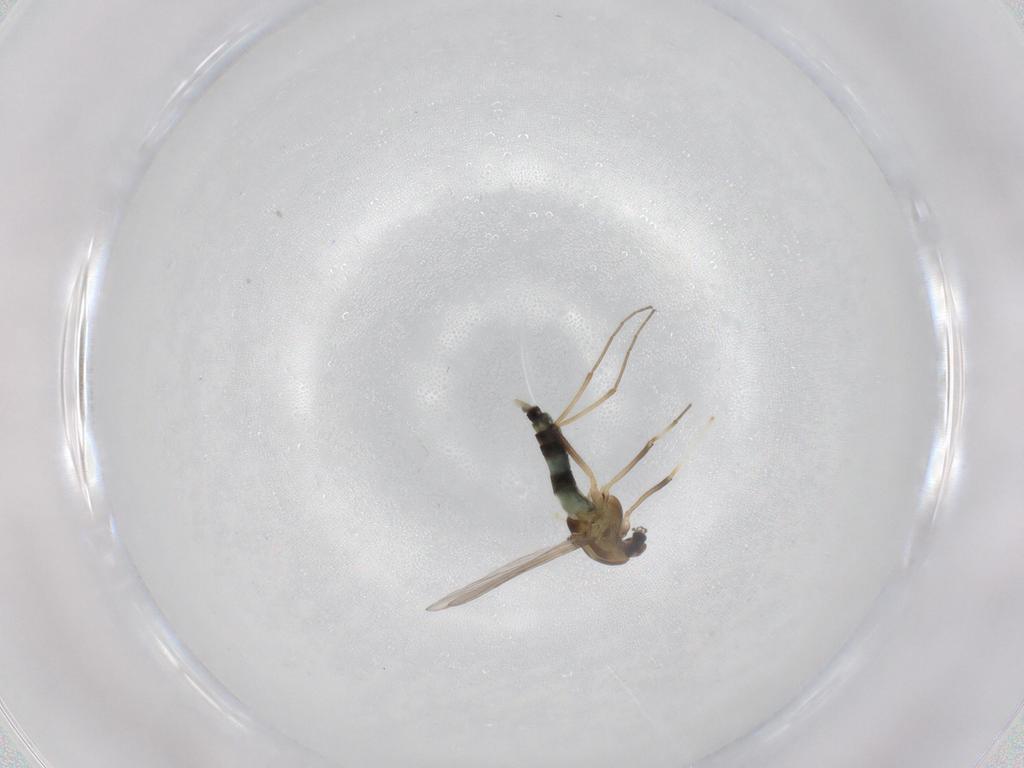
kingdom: Animalia
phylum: Arthropoda
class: Insecta
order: Diptera
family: Chironomidae
